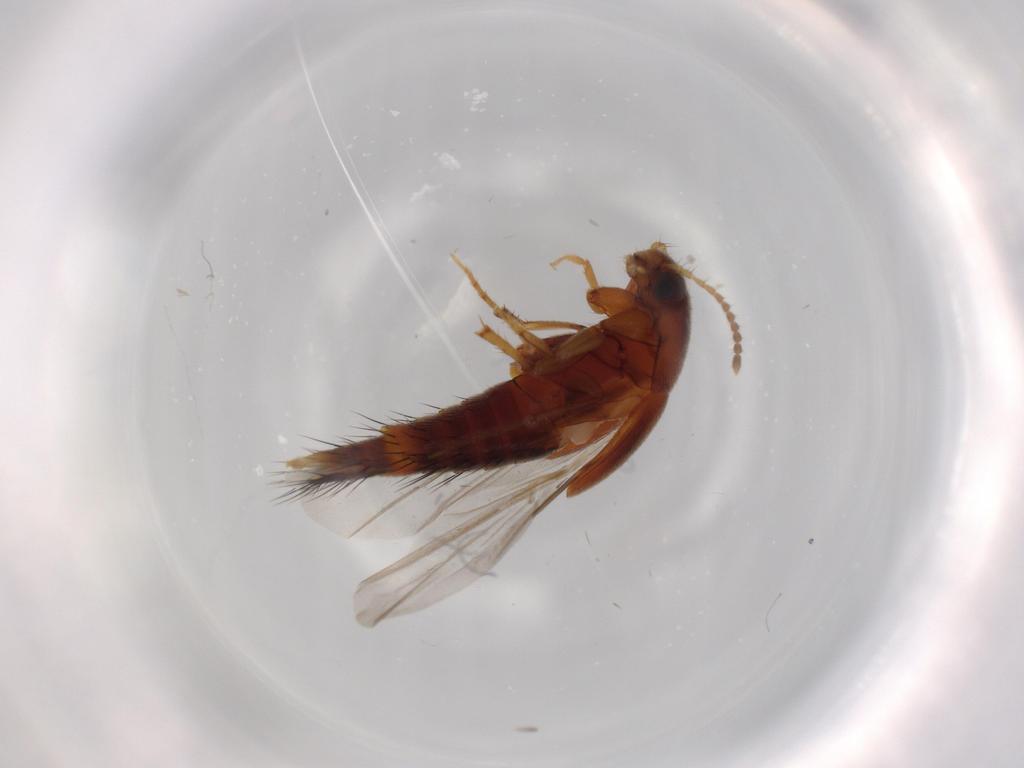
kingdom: Animalia
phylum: Arthropoda
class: Insecta
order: Coleoptera
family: Staphylinidae
